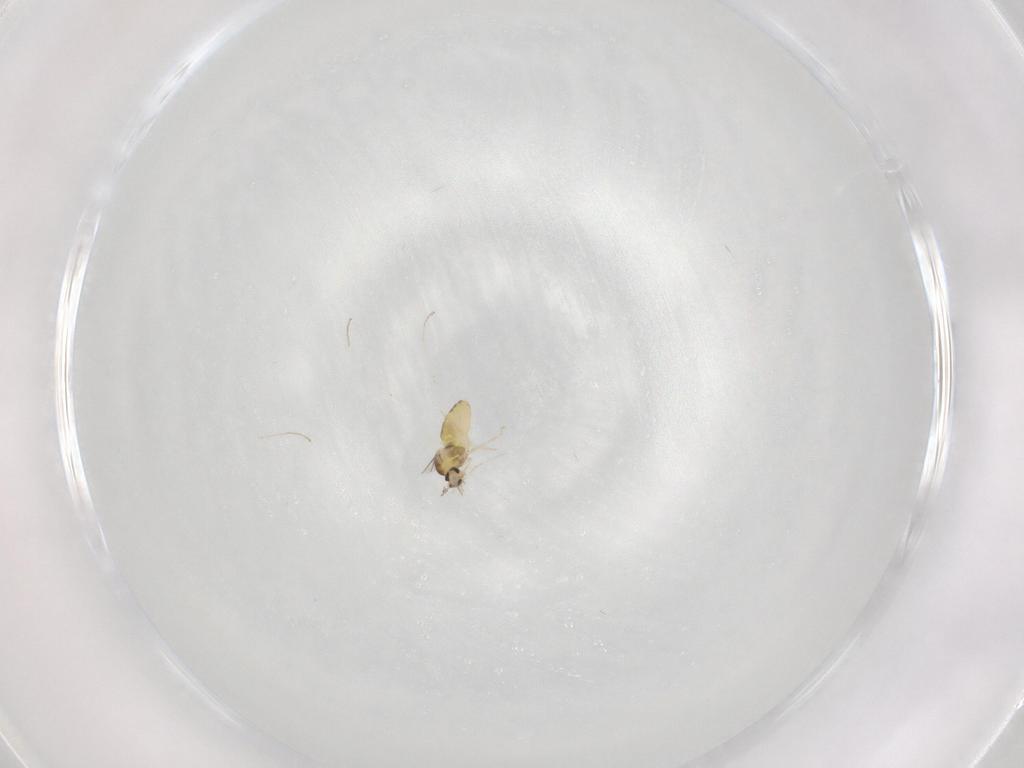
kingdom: Animalia
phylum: Arthropoda
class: Insecta
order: Diptera
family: Cecidomyiidae
